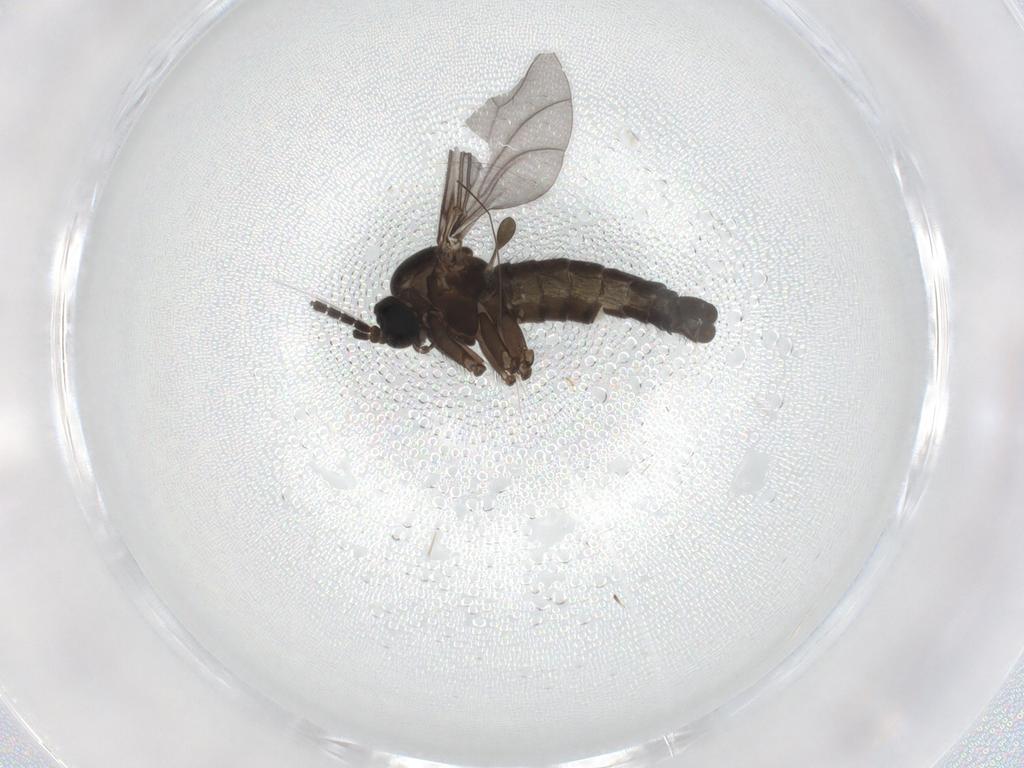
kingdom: Animalia
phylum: Arthropoda
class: Insecta
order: Diptera
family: Sciaridae
